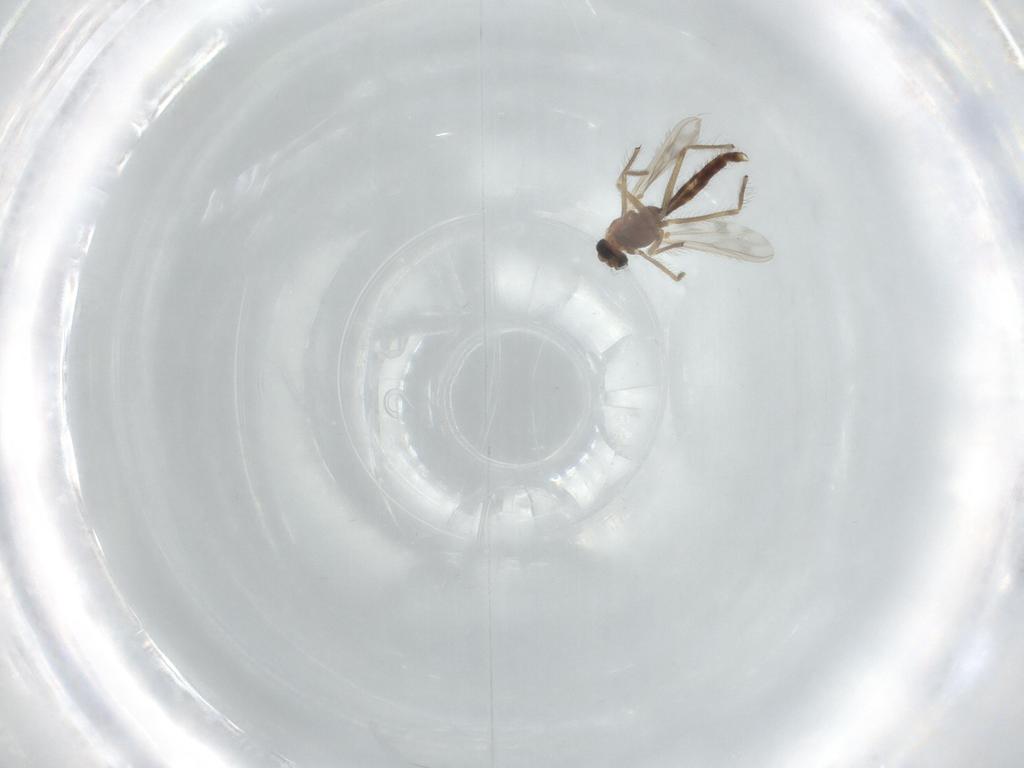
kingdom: Animalia
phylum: Arthropoda
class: Insecta
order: Diptera
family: Chironomidae
